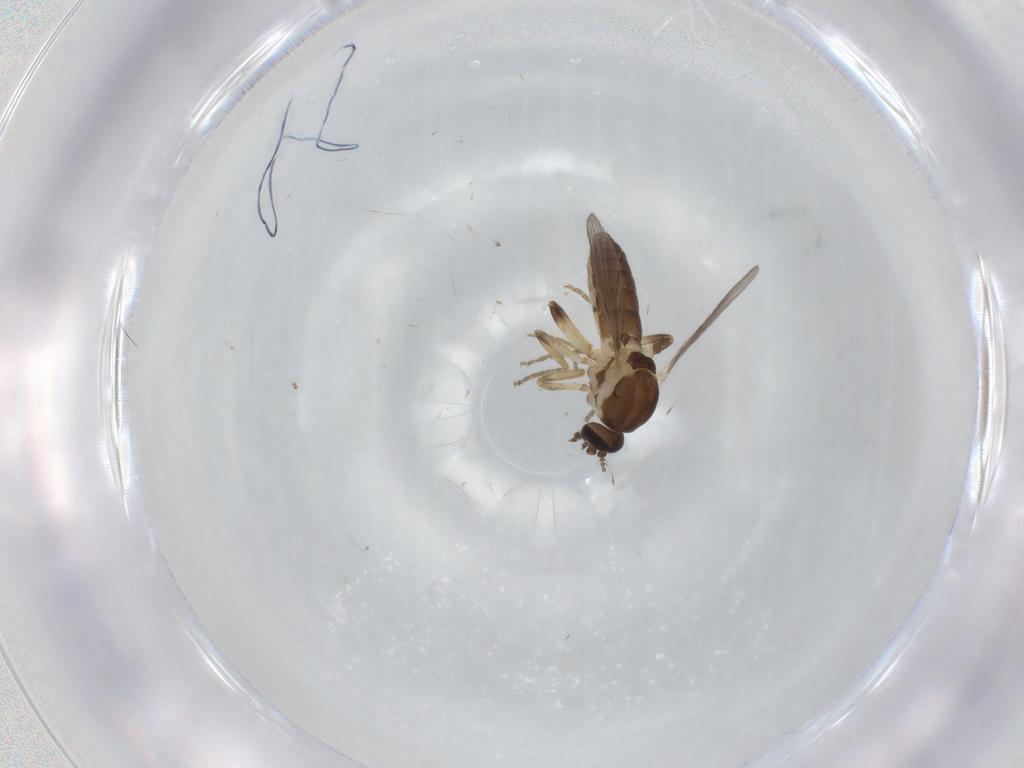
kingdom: Animalia
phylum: Arthropoda
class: Insecta
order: Diptera
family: Ceratopogonidae
